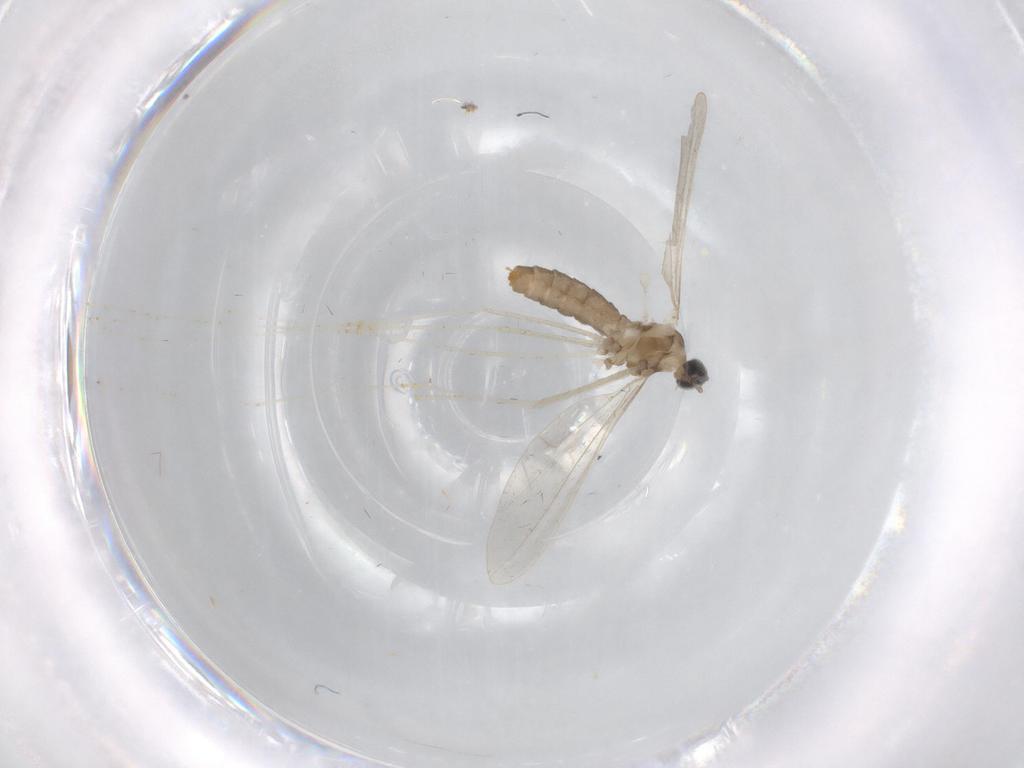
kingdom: Animalia
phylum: Arthropoda
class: Insecta
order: Diptera
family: Cecidomyiidae
